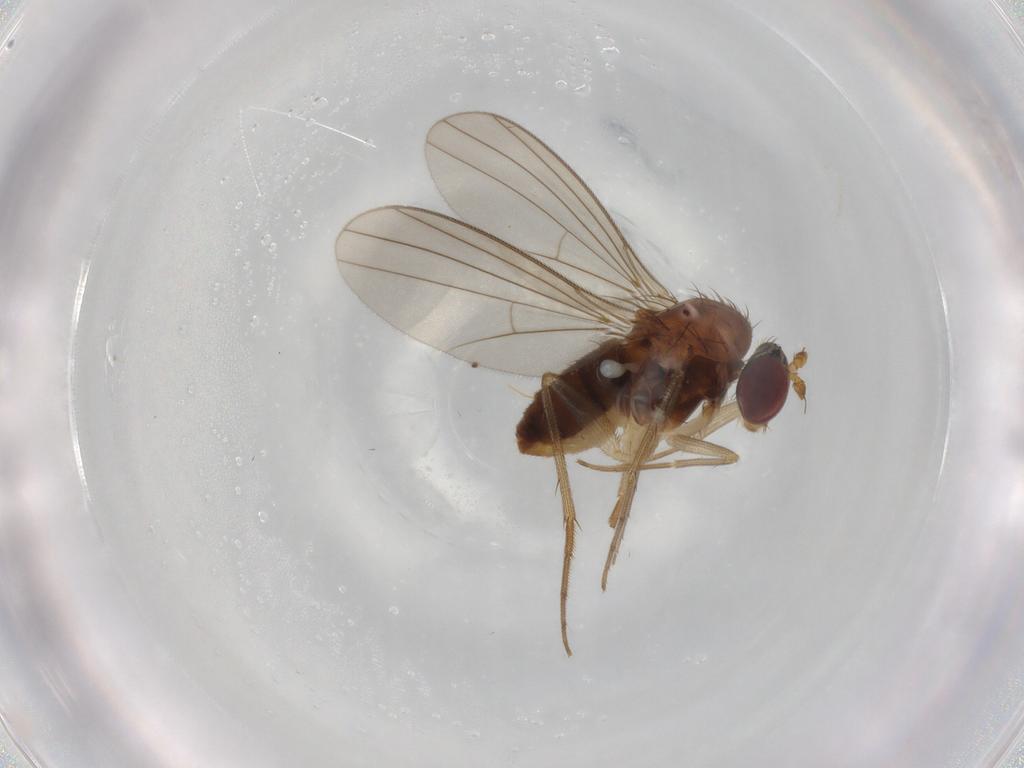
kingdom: Animalia
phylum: Arthropoda
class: Insecta
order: Diptera
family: Dolichopodidae
